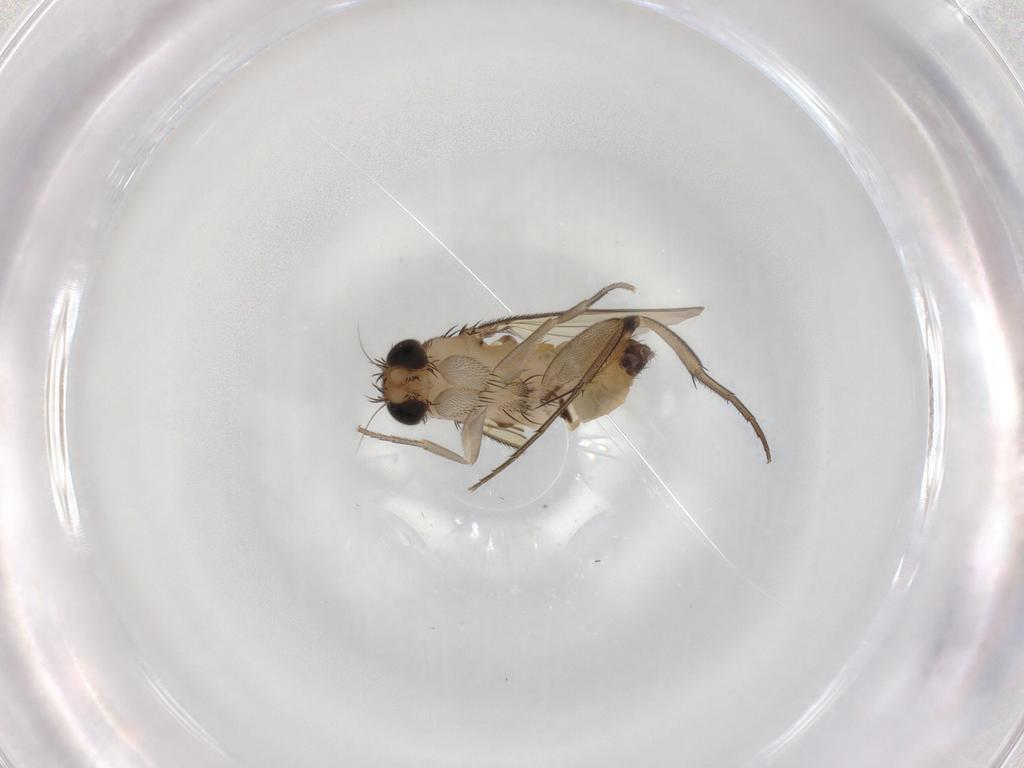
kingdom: Animalia
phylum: Arthropoda
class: Insecta
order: Diptera
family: Phoridae
